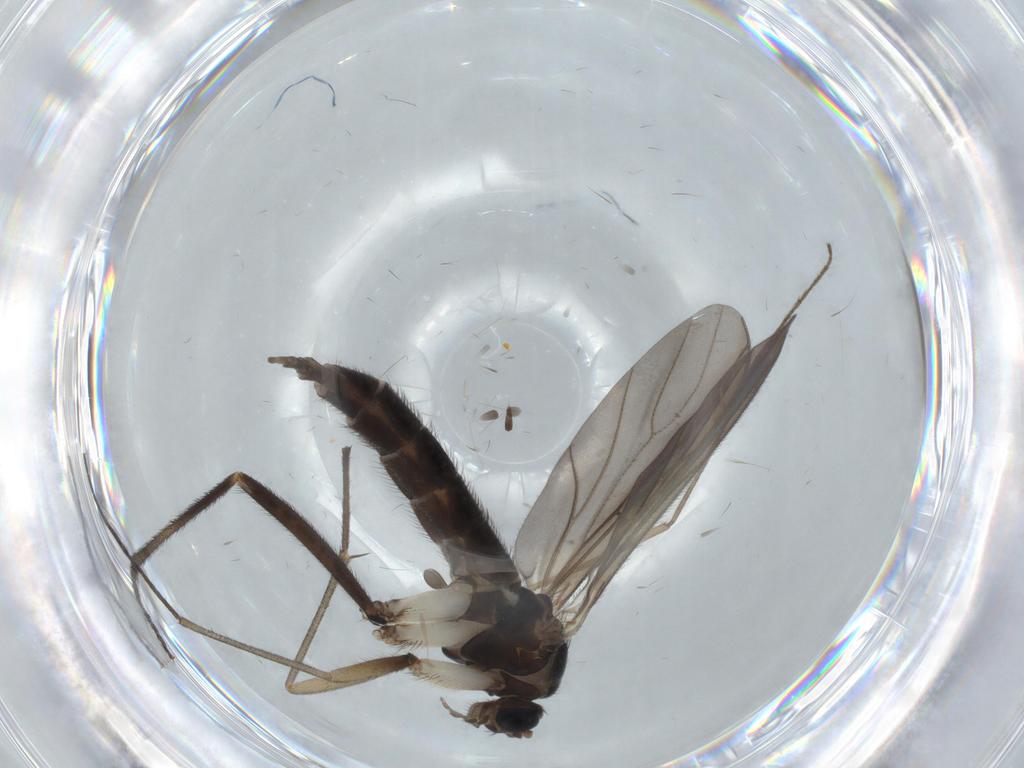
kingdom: Animalia
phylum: Arthropoda
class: Insecta
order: Diptera
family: Sciaridae
